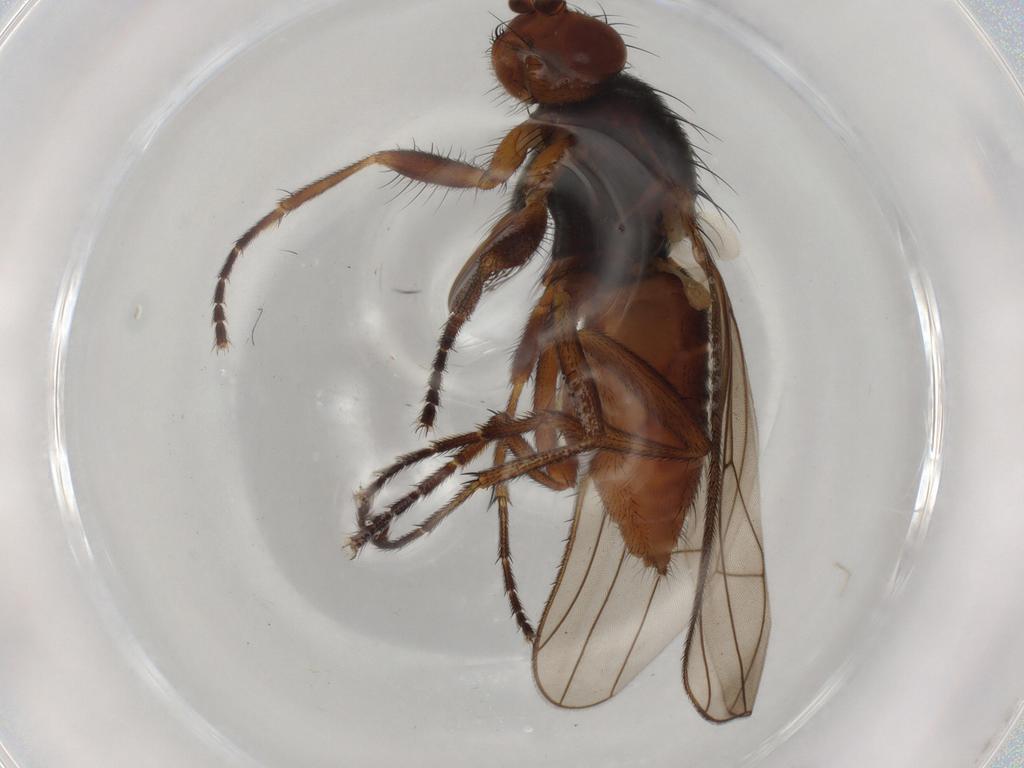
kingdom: Animalia
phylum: Arthropoda
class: Insecta
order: Diptera
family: Heleomyzidae
